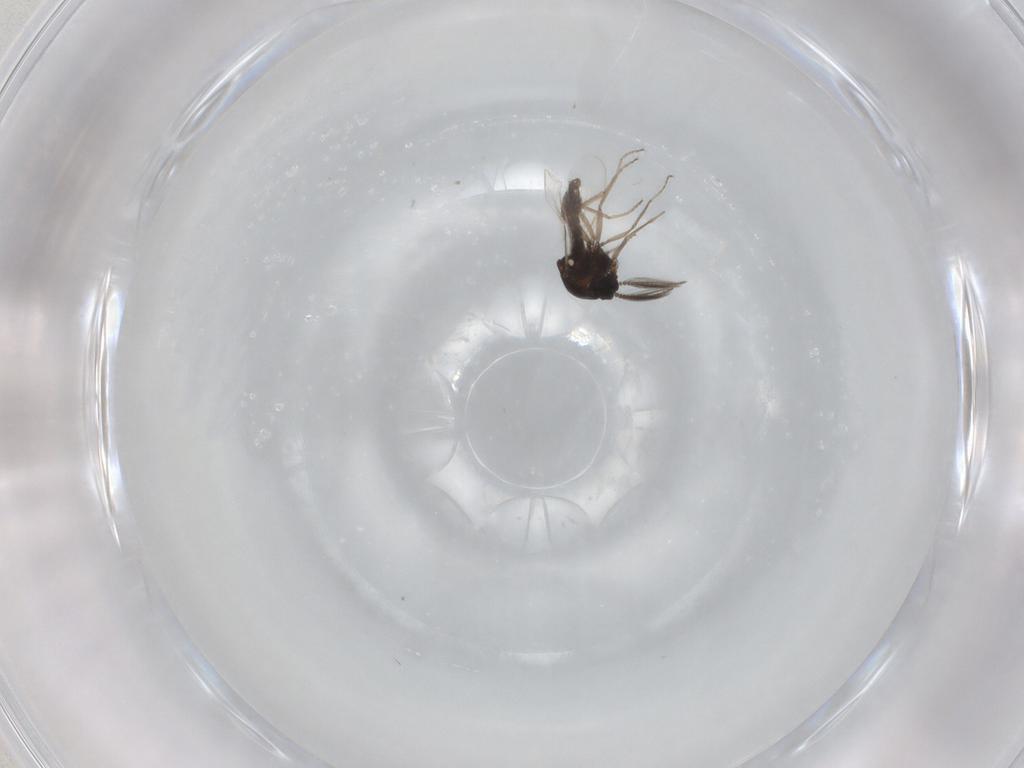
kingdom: Animalia
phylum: Arthropoda
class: Insecta
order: Diptera
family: Ceratopogonidae
